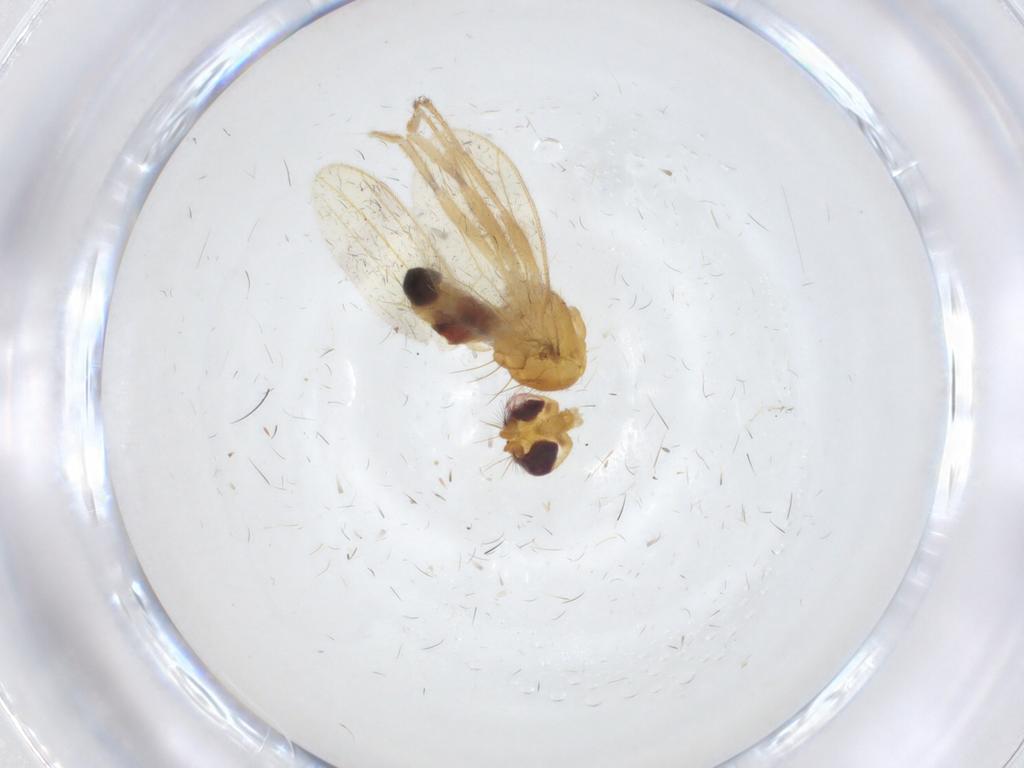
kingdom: Animalia
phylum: Arthropoda
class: Insecta
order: Diptera
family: Periscelididae
